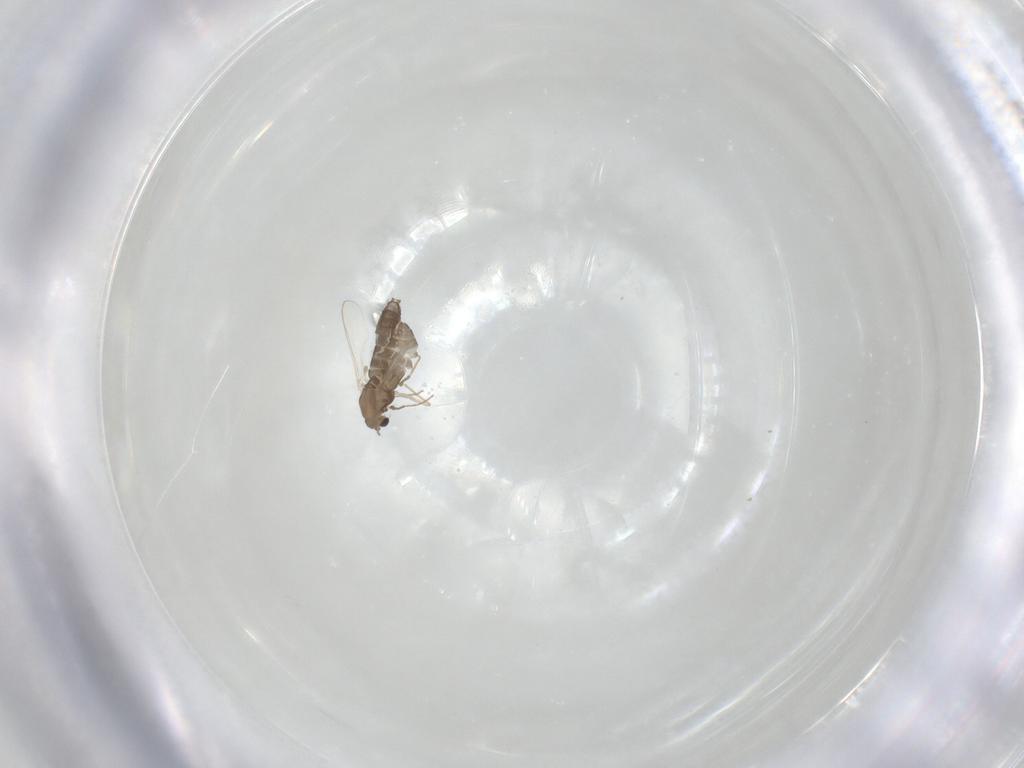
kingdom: Animalia
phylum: Arthropoda
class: Insecta
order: Diptera
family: Chironomidae
